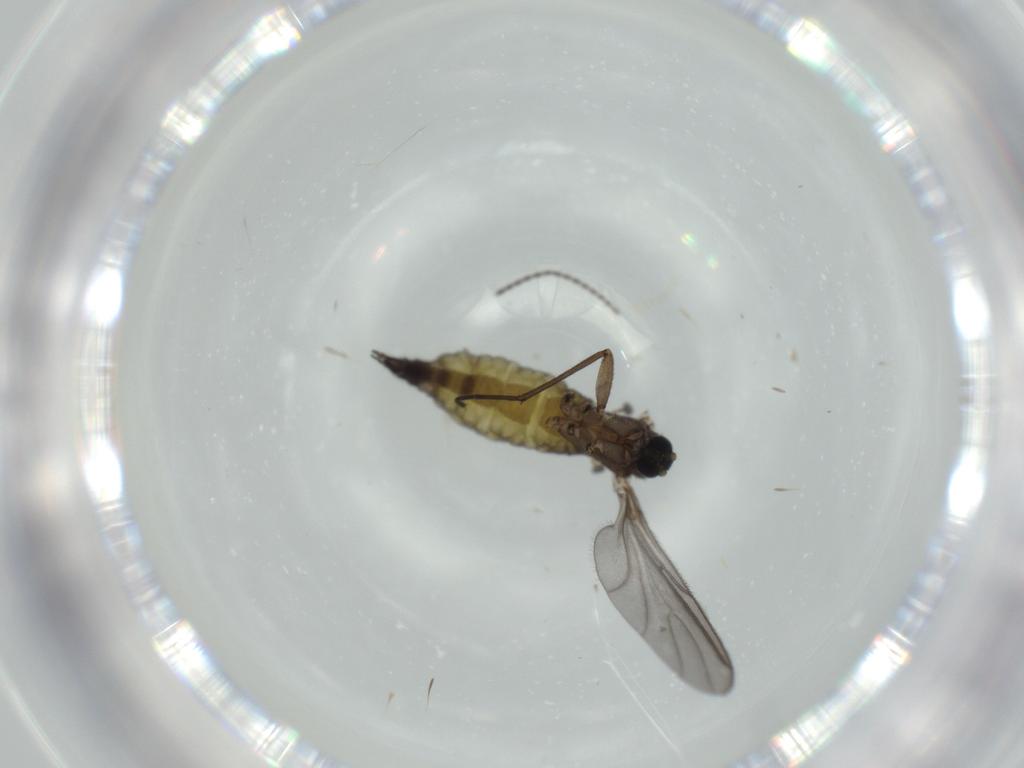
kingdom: Animalia
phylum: Arthropoda
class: Insecta
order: Diptera
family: Sciaridae
